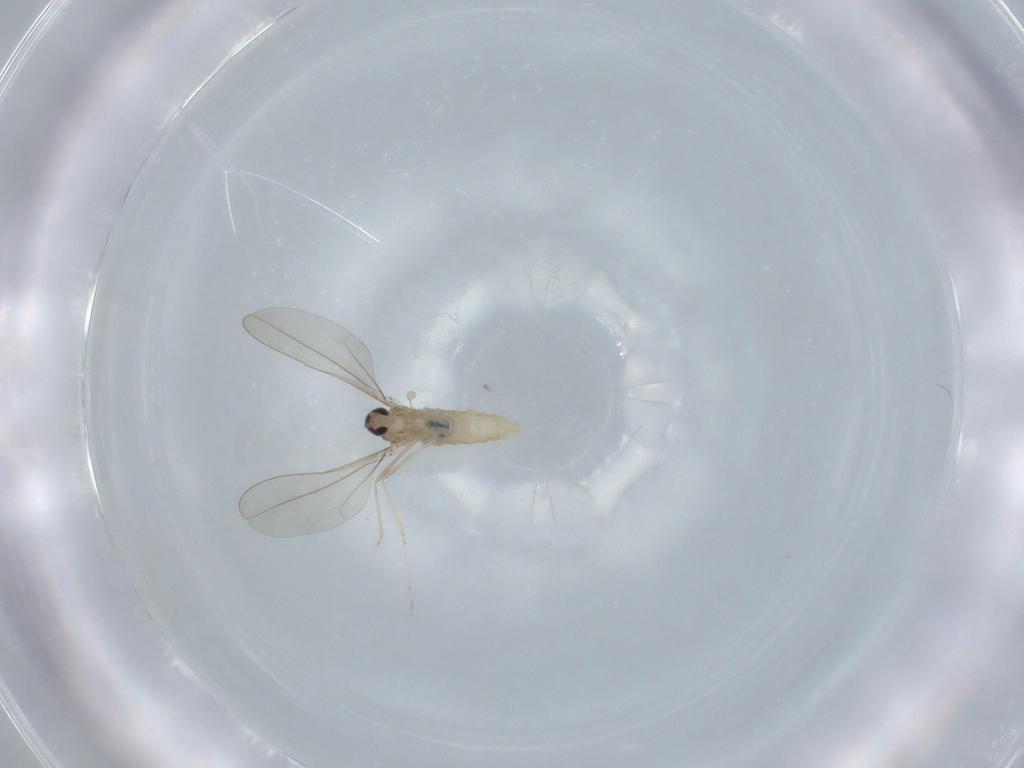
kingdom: Animalia
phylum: Arthropoda
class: Insecta
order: Diptera
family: Cecidomyiidae
